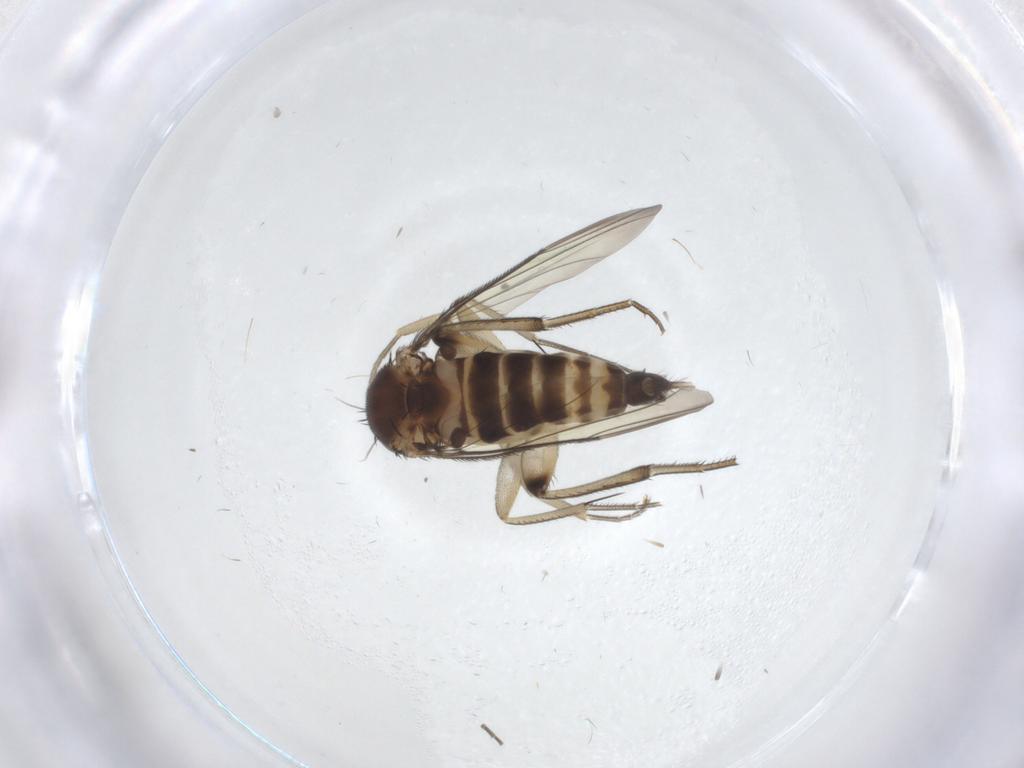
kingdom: Animalia
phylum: Arthropoda
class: Insecta
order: Diptera
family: Phoridae
